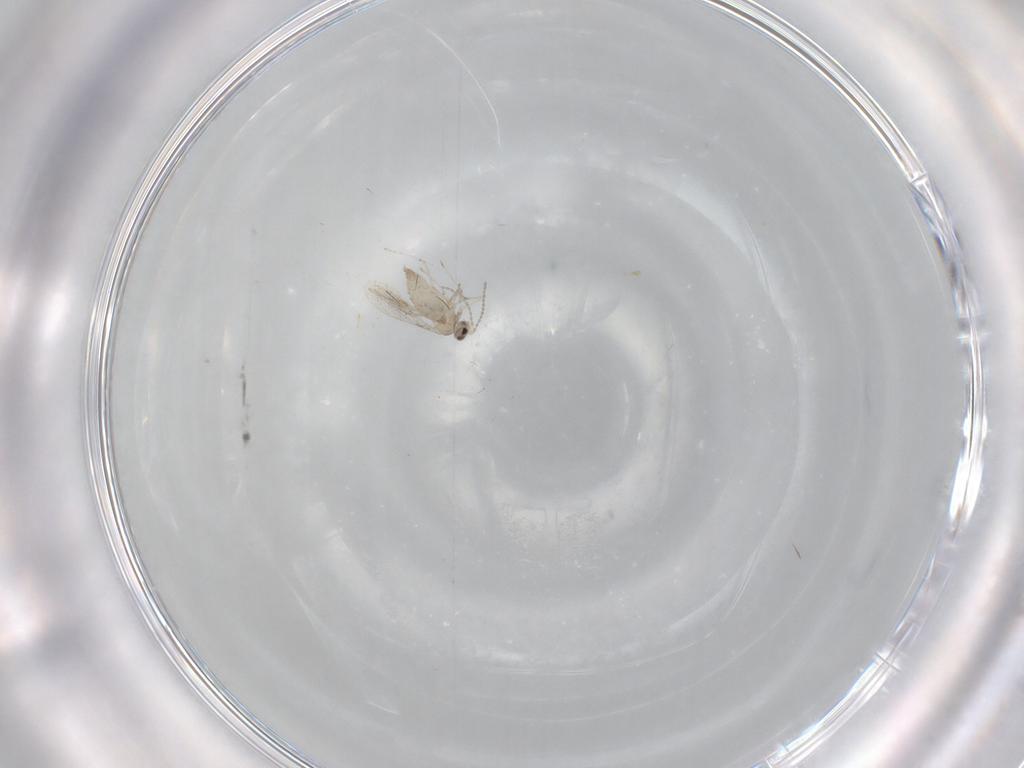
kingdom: Animalia
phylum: Arthropoda
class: Insecta
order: Diptera
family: Cecidomyiidae
